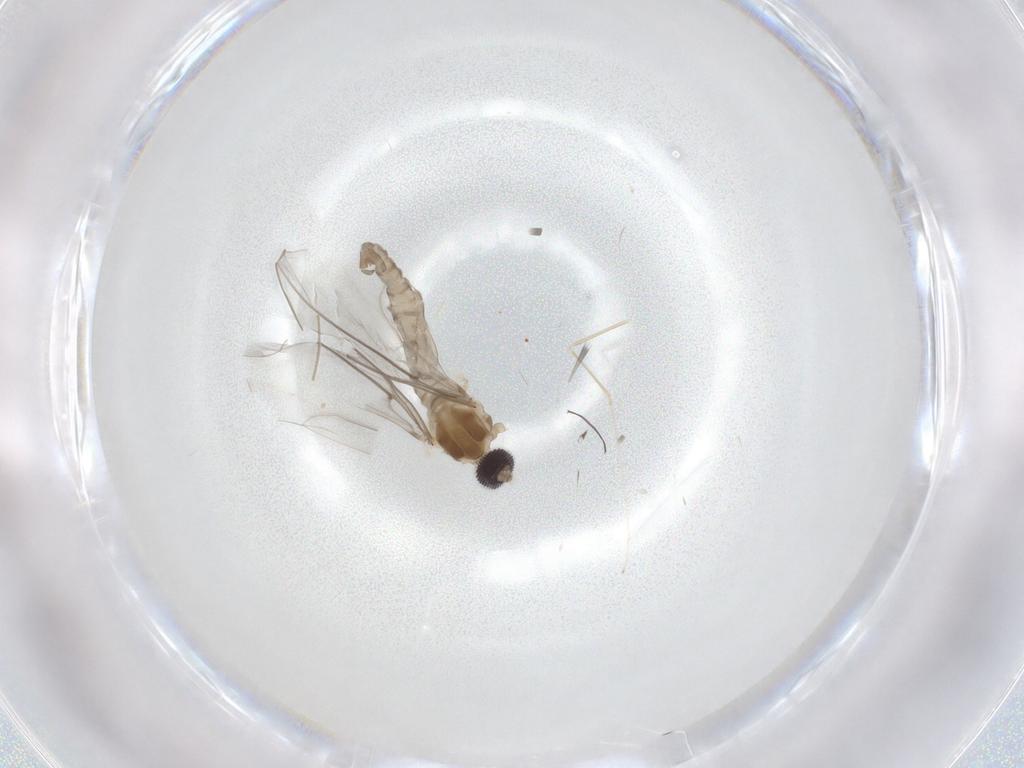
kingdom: Animalia
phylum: Arthropoda
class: Insecta
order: Diptera
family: Cecidomyiidae
